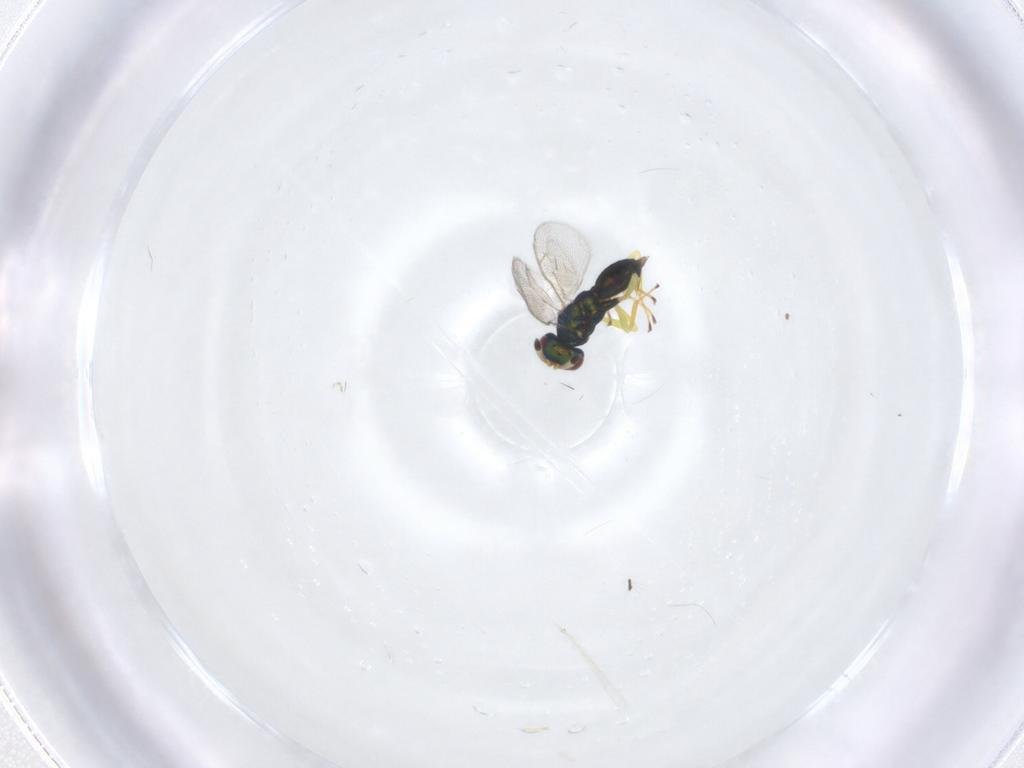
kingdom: Animalia
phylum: Arthropoda
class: Insecta
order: Hymenoptera
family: Pteromalidae
